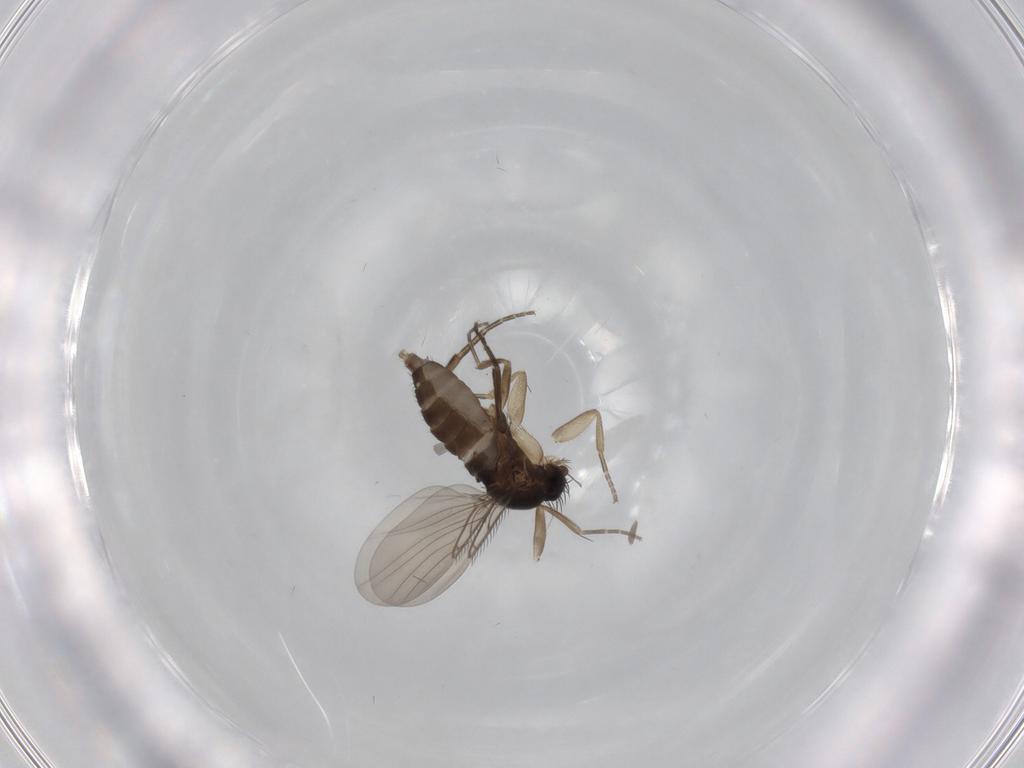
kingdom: Animalia
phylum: Arthropoda
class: Insecta
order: Diptera
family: Phoridae
